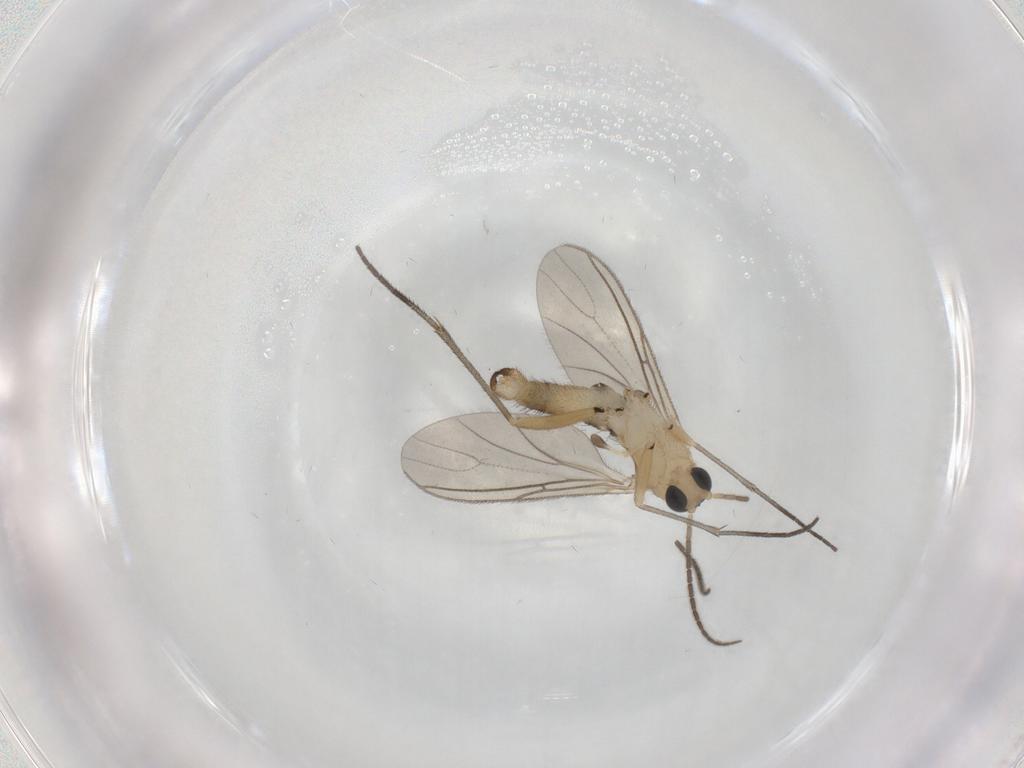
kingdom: Animalia
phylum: Arthropoda
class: Insecta
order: Diptera
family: Sciaridae
